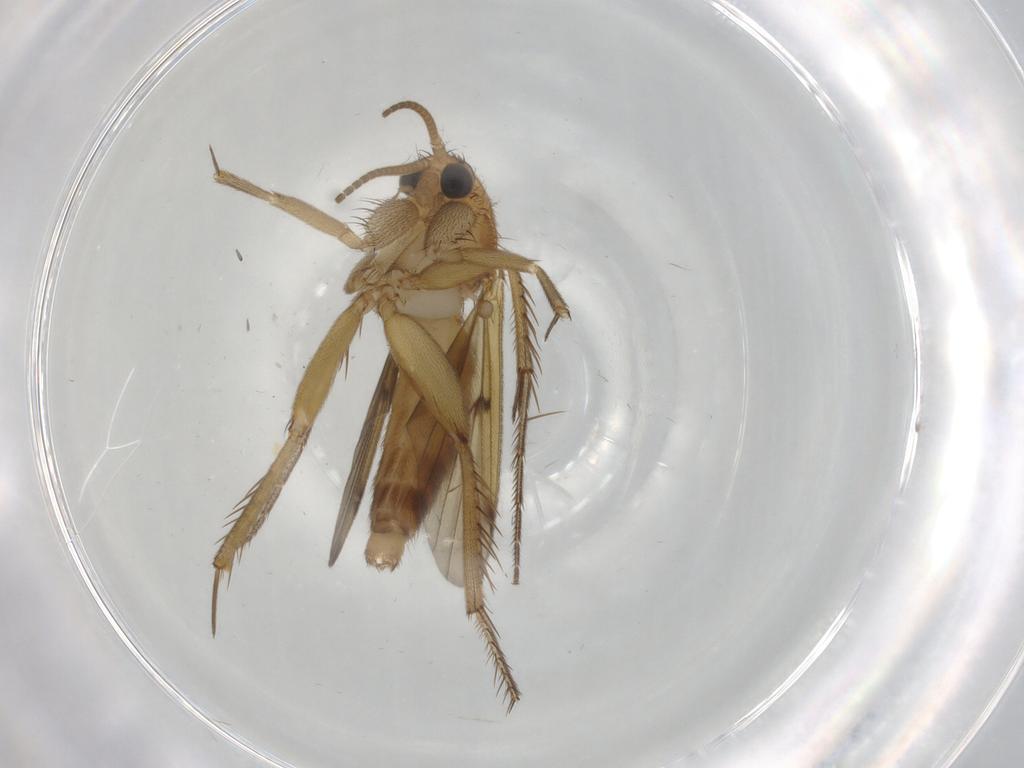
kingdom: Animalia
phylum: Arthropoda
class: Insecta
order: Diptera
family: Mycetophilidae
